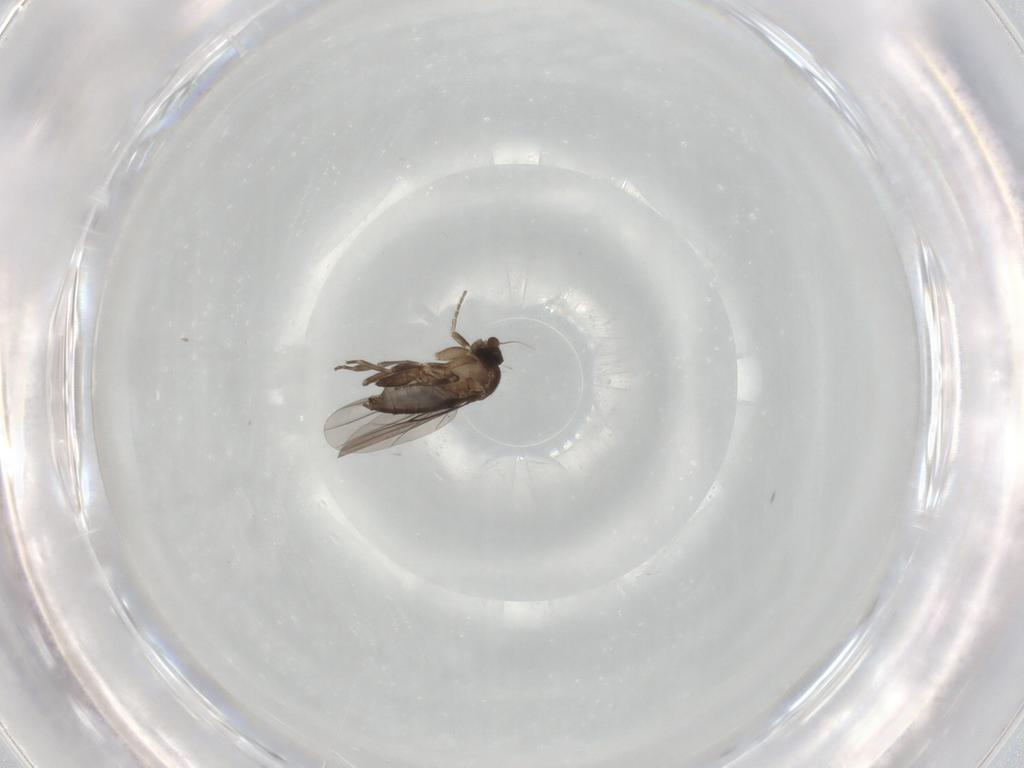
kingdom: Animalia
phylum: Arthropoda
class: Insecta
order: Diptera
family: Phoridae
